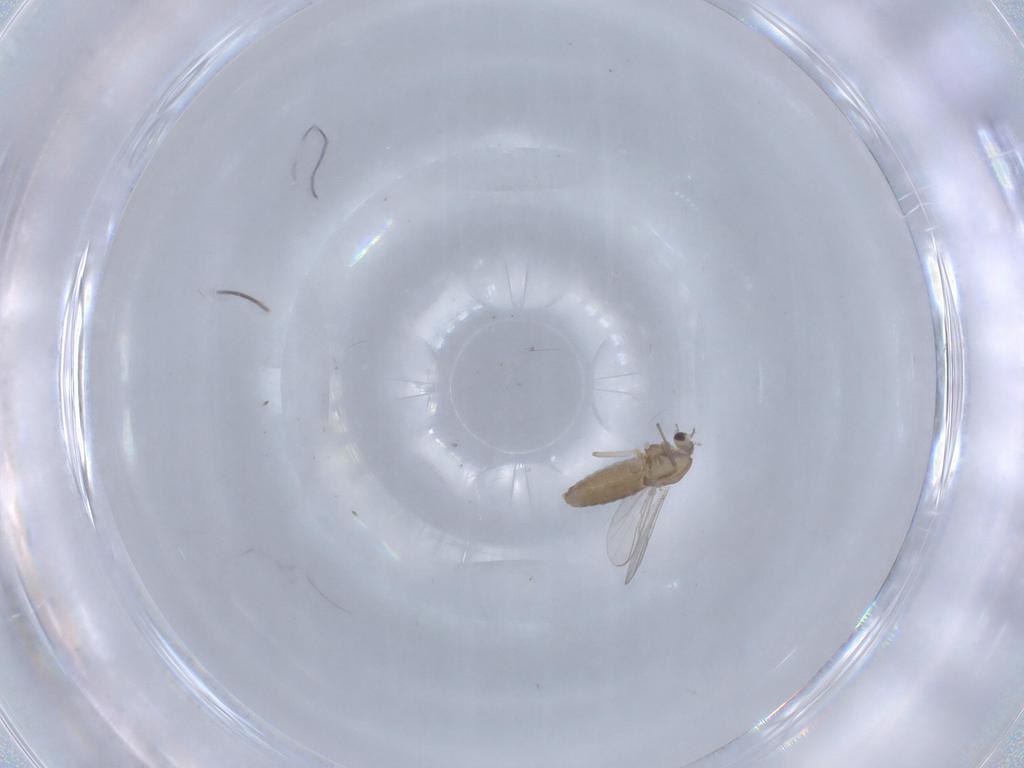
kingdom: Animalia
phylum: Arthropoda
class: Insecta
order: Diptera
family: Chironomidae
